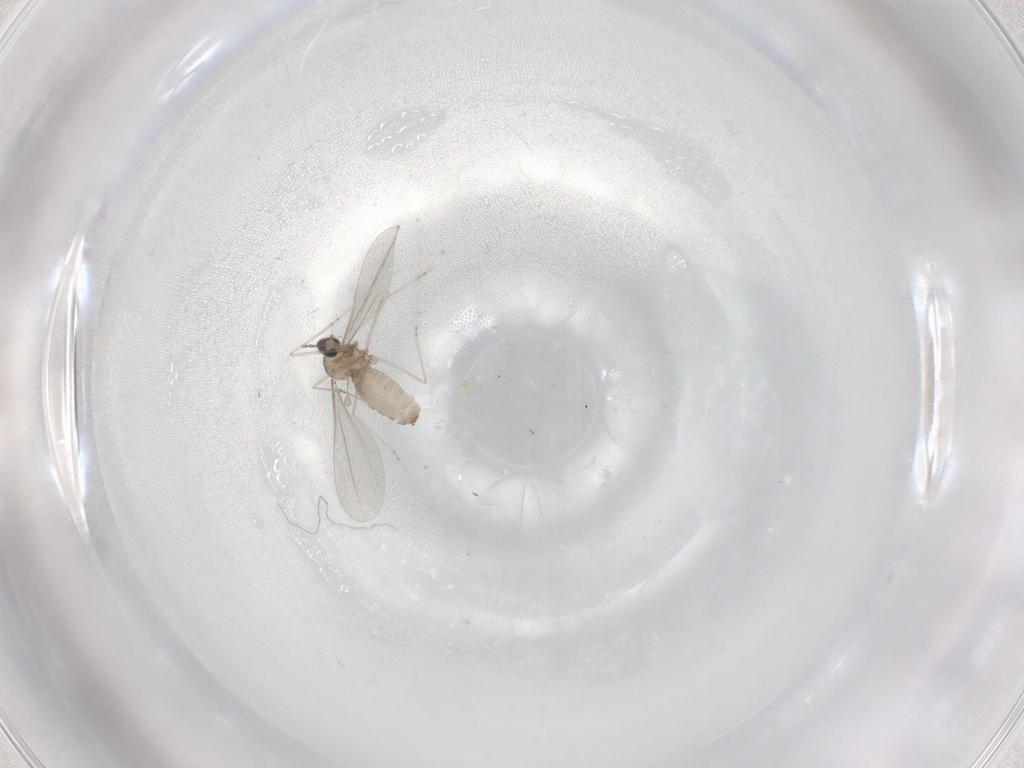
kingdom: Animalia
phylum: Arthropoda
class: Insecta
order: Diptera
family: Cecidomyiidae
